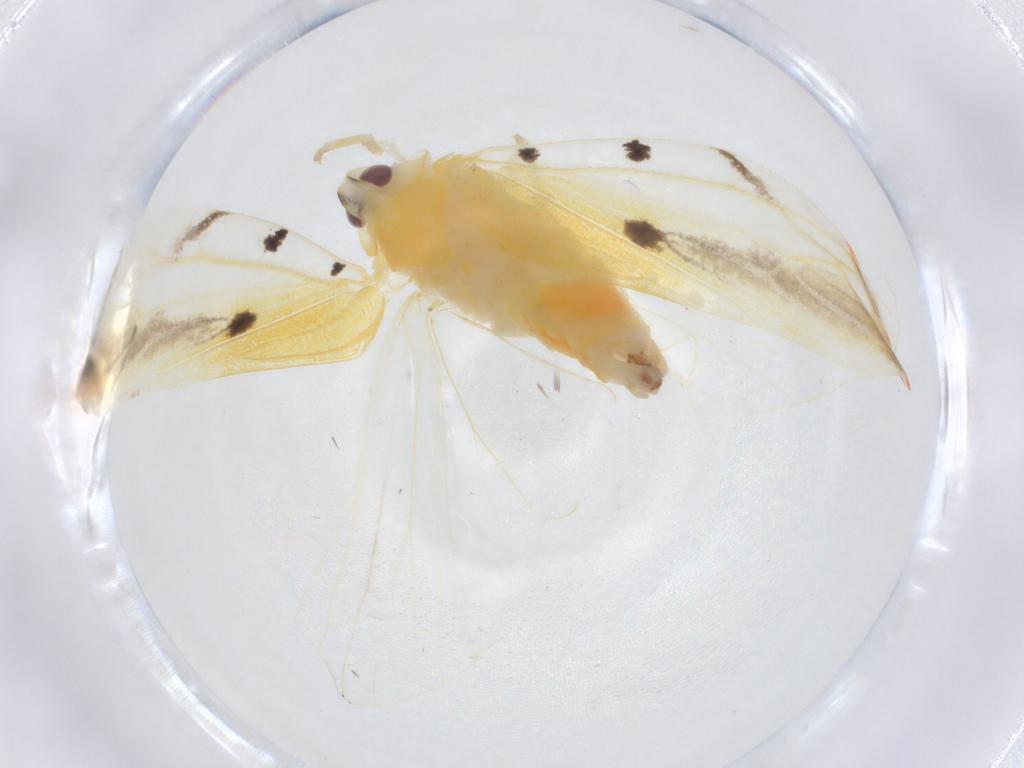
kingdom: Animalia
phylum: Arthropoda
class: Insecta
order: Hemiptera
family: Derbidae
